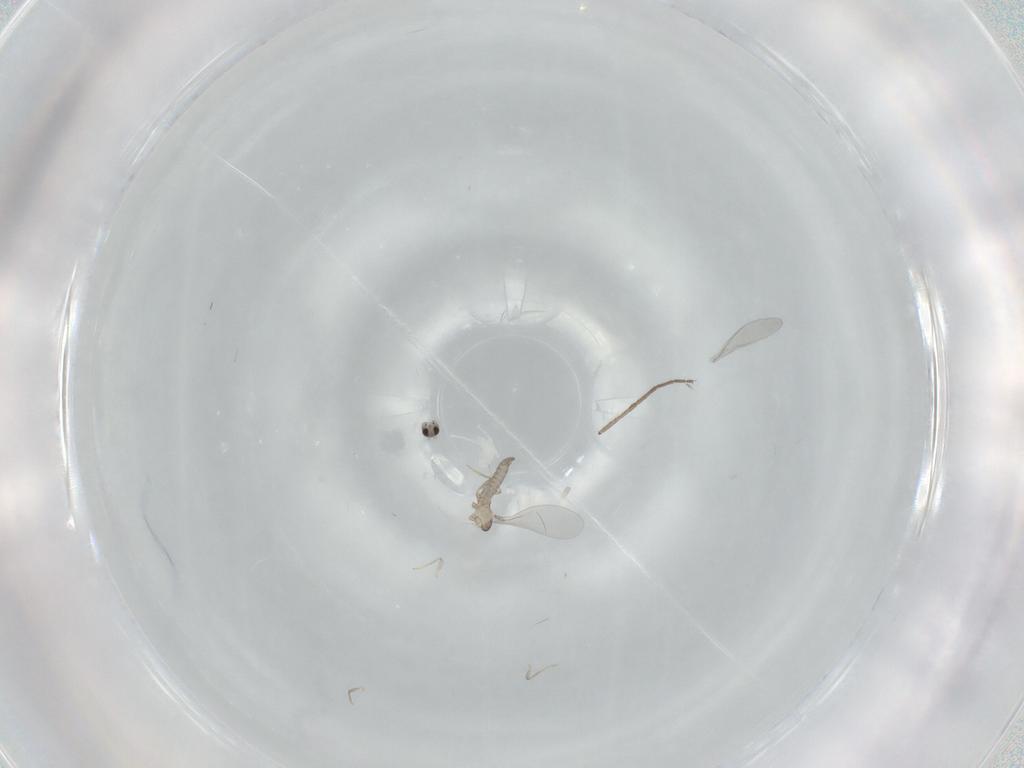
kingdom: Animalia
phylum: Arthropoda
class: Insecta
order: Diptera
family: Cecidomyiidae
